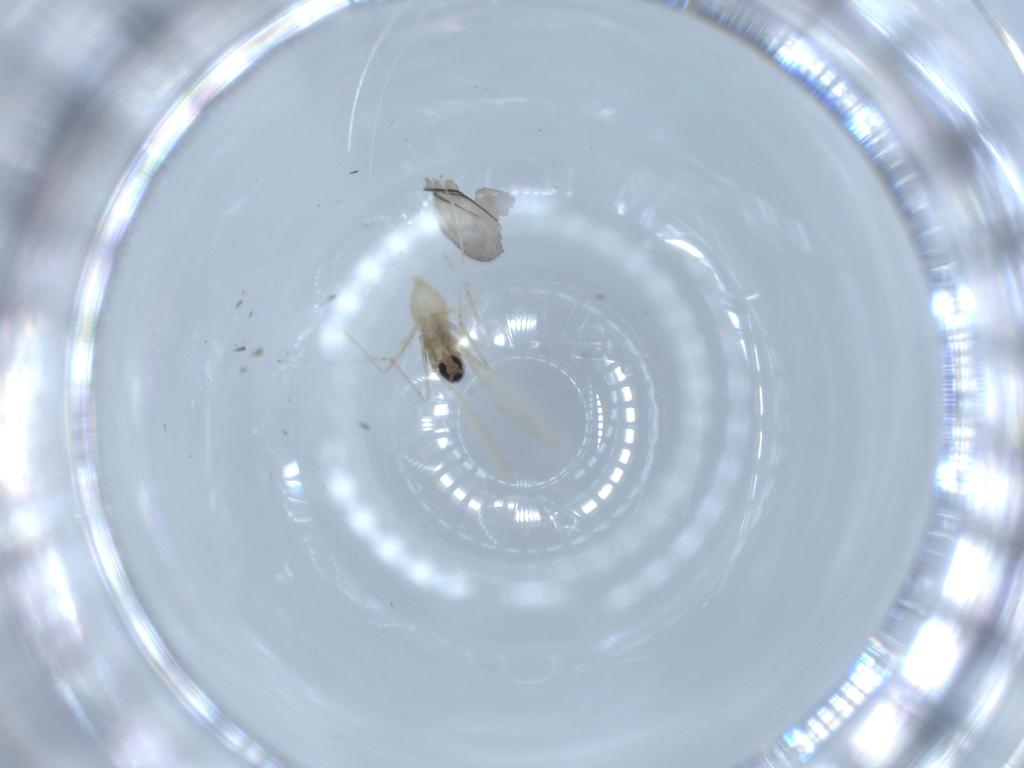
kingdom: Animalia
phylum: Arthropoda
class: Insecta
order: Diptera
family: Cecidomyiidae
